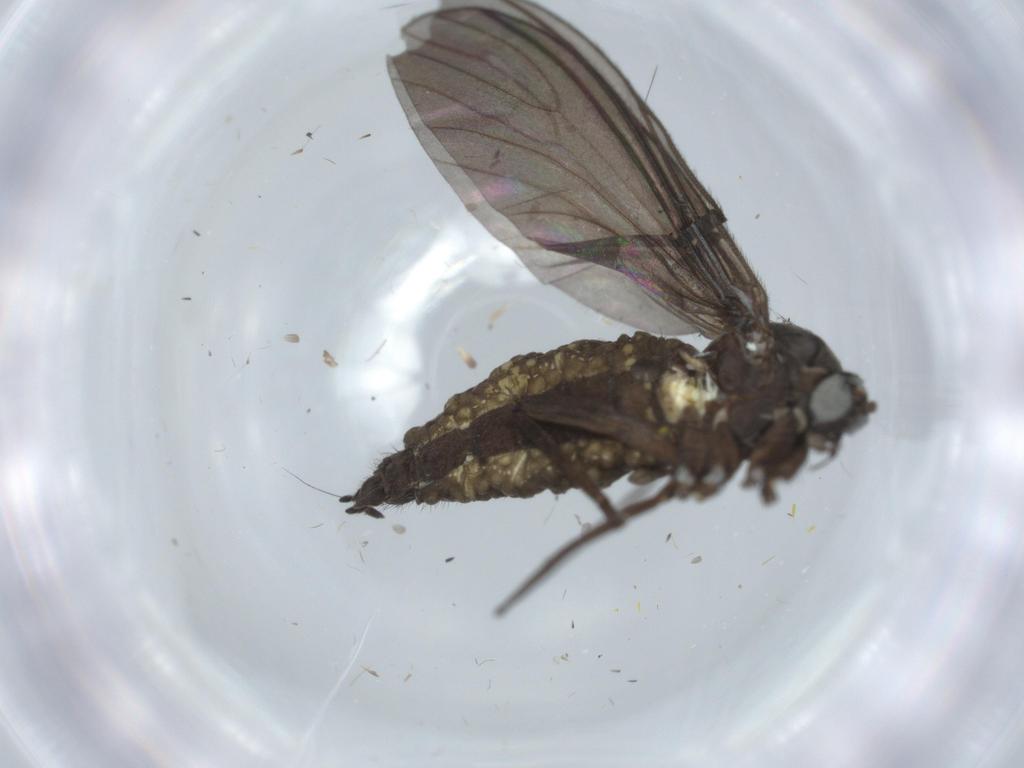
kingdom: Animalia
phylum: Arthropoda
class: Insecta
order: Diptera
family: Sciaridae
